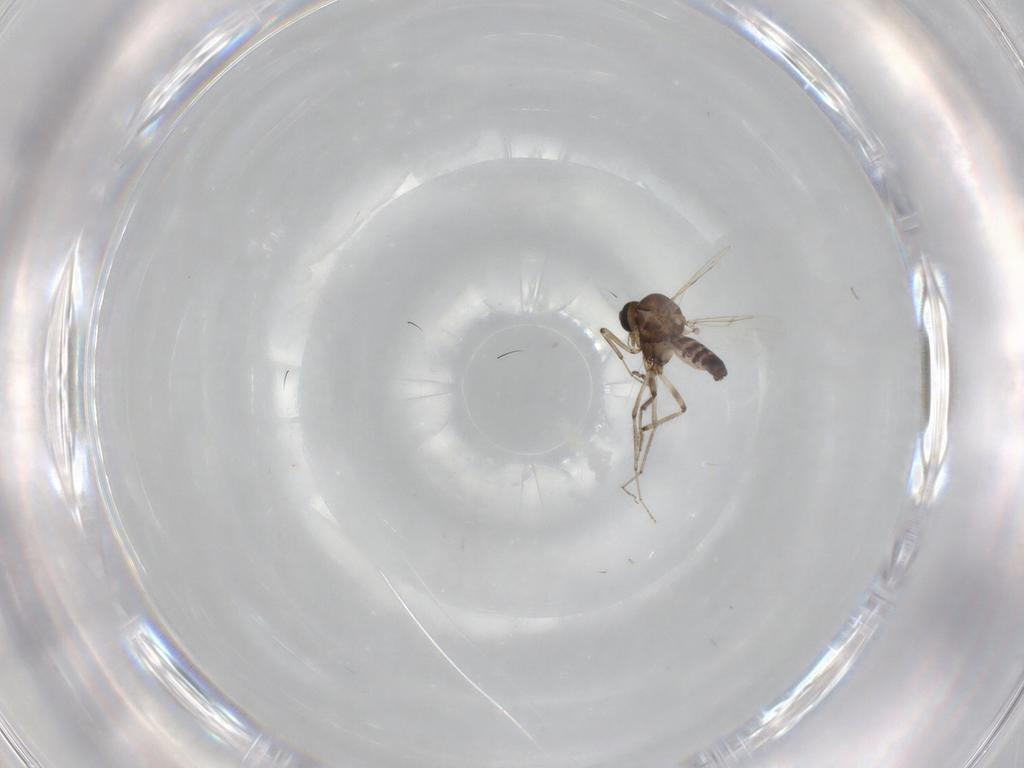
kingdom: Animalia
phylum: Arthropoda
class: Insecta
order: Diptera
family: Ceratopogonidae
